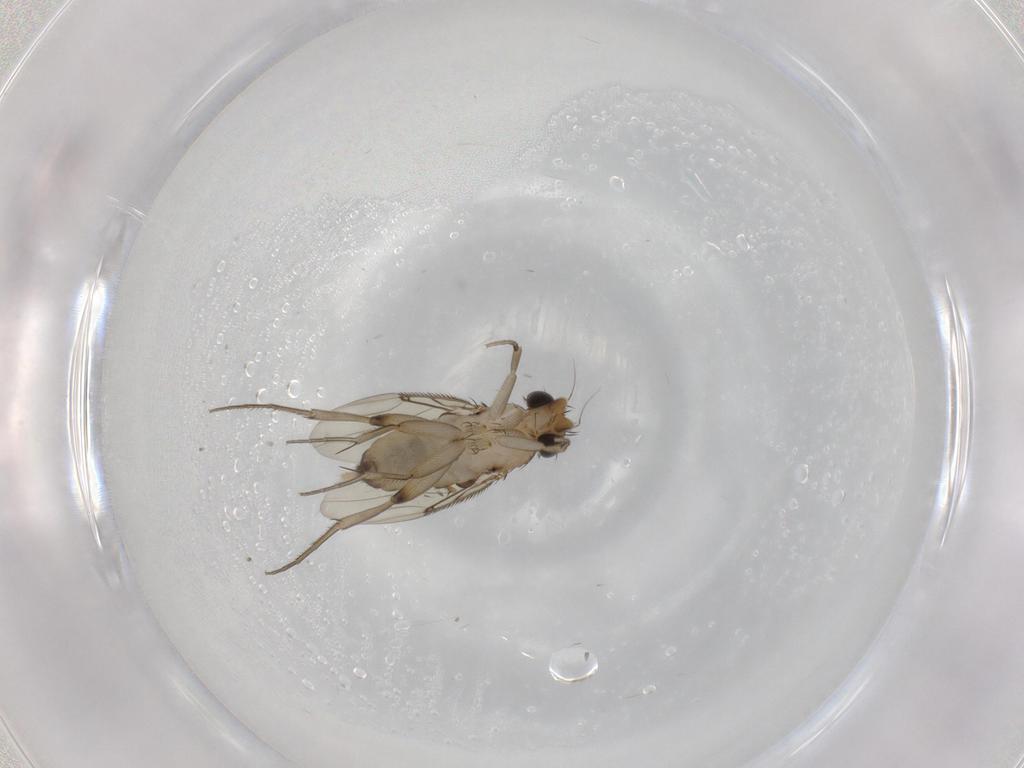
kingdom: Animalia
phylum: Arthropoda
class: Insecta
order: Diptera
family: Phoridae
